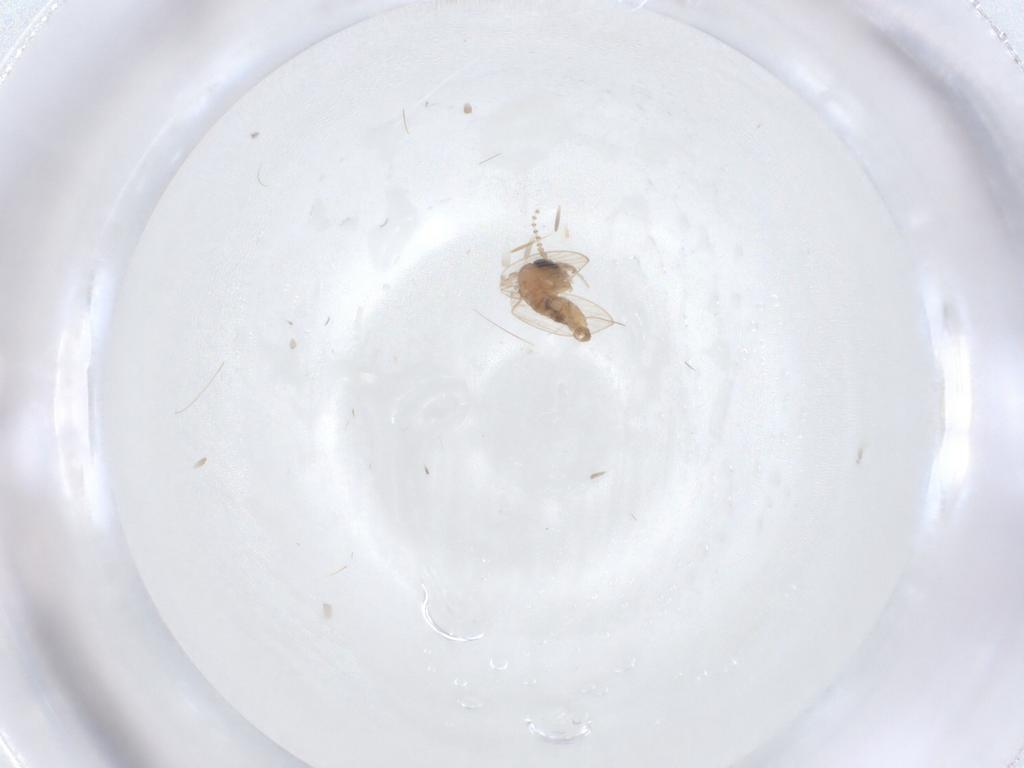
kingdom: Animalia
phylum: Arthropoda
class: Insecta
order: Diptera
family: Psychodidae
